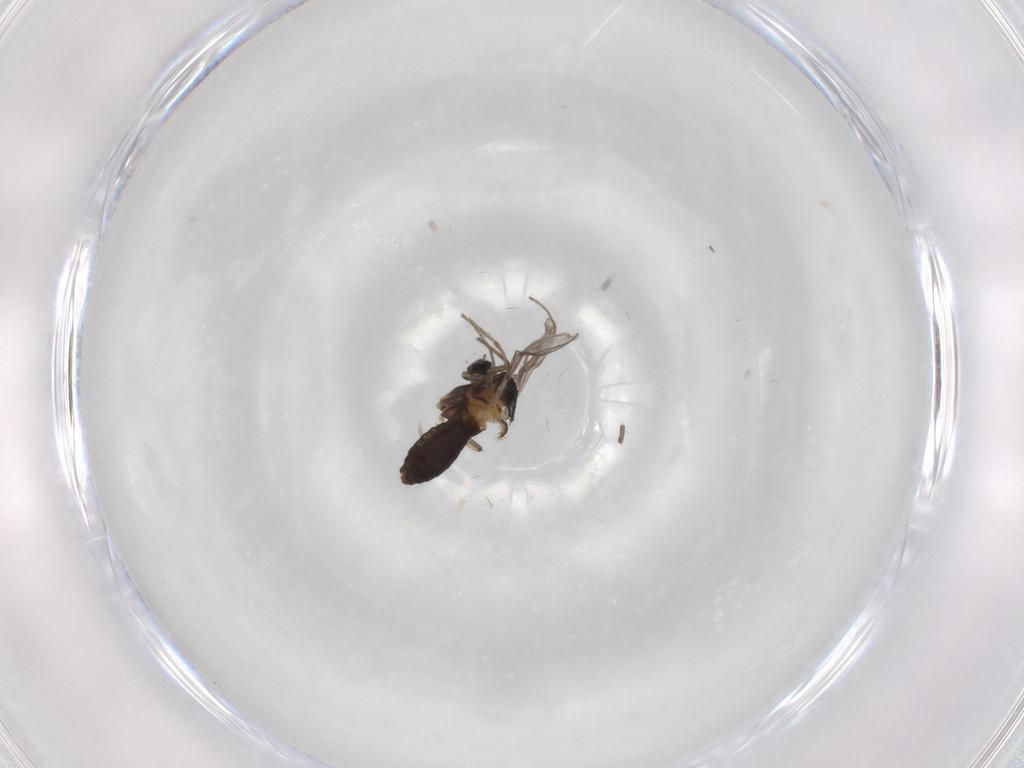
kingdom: Animalia
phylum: Arthropoda
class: Insecta
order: Diptera
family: Chironomidae
